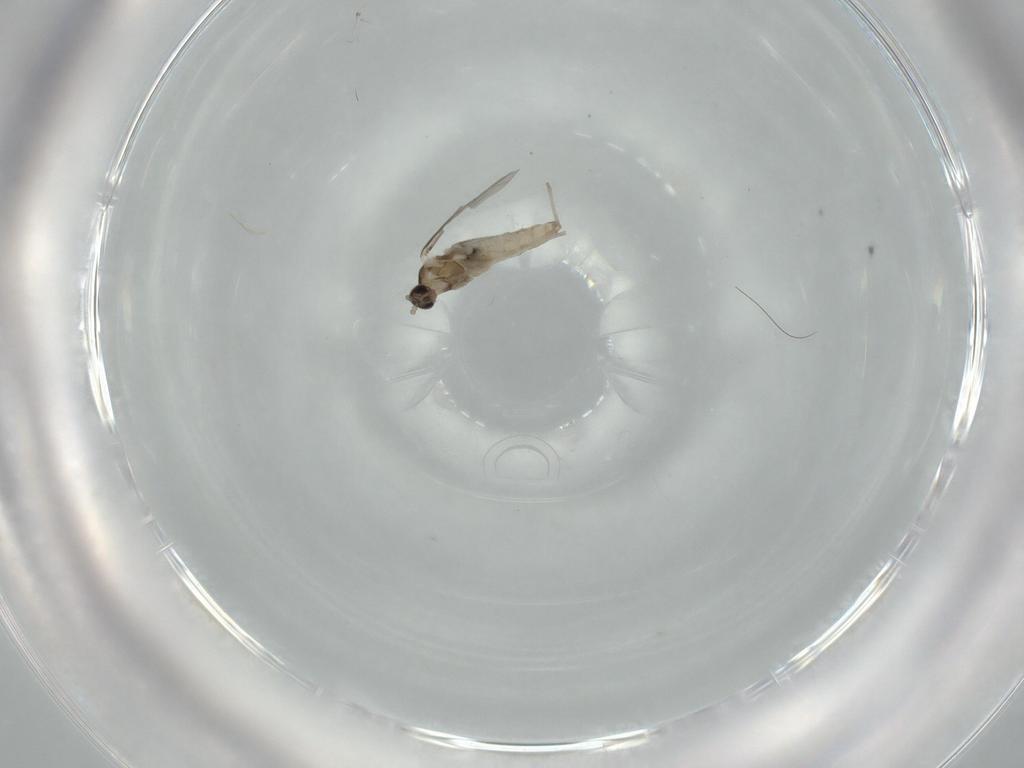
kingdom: Animalia
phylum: Arthropoda
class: Insecta
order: Diptera
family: Cecidomyiidae
